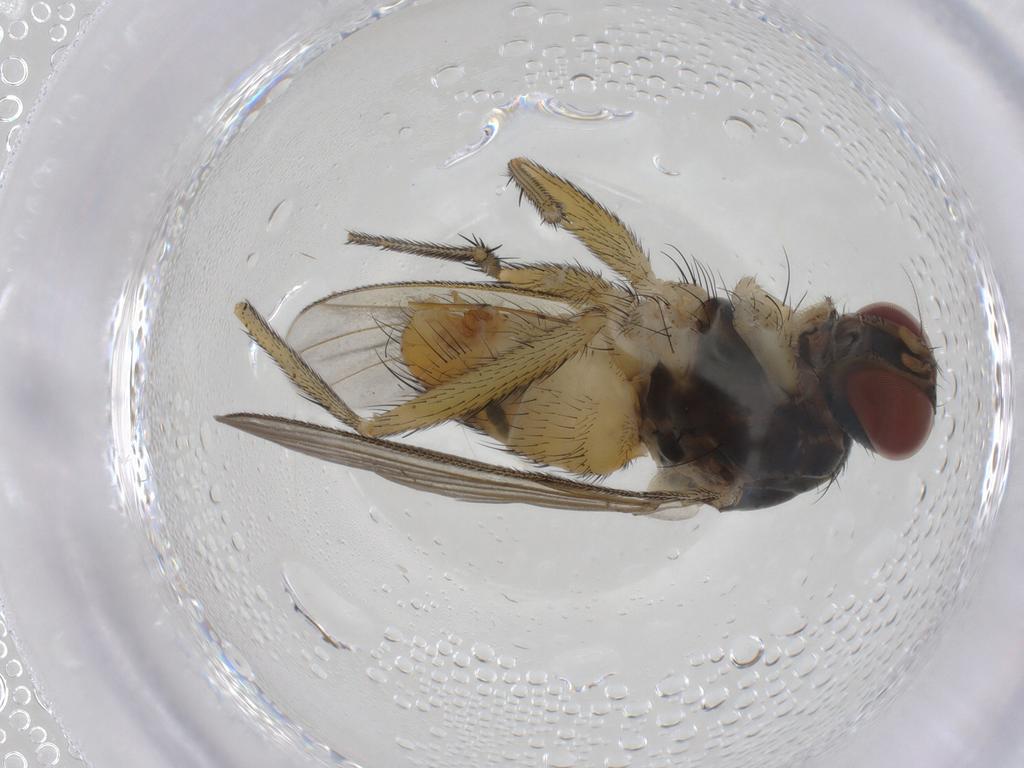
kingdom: Animalia
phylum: Arthropoda
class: Insecta
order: Diptera
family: Muscidae
